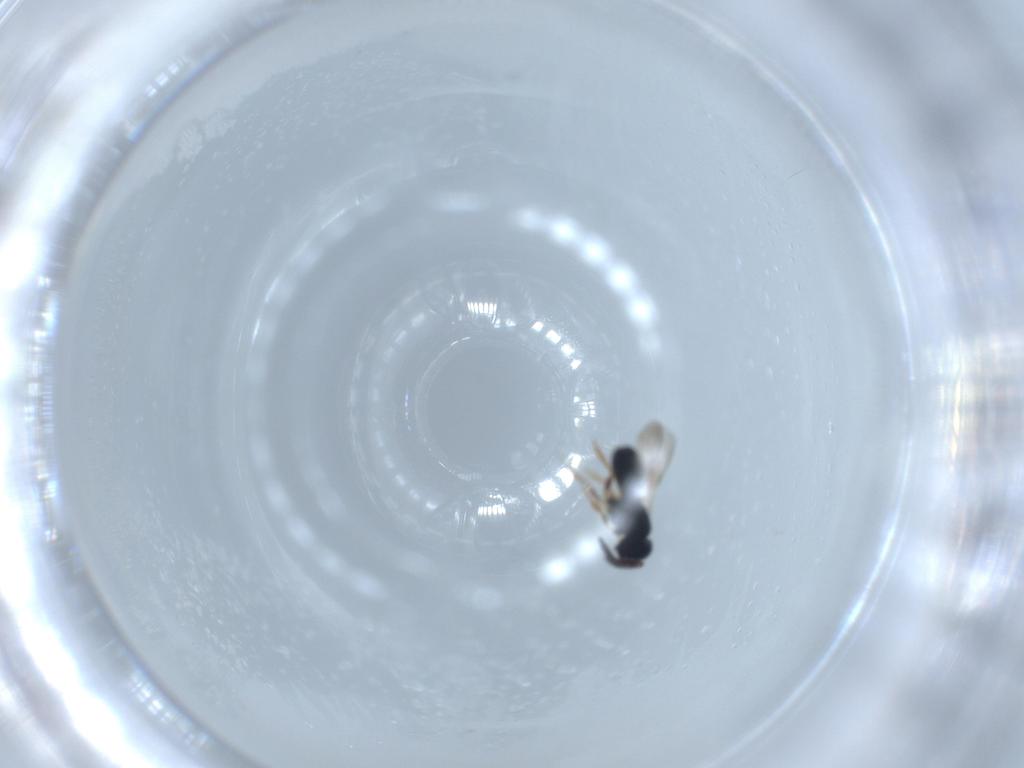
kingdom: Animalia
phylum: Arthropoda
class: Insecta
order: Hymenoptera
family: Scelionidae
